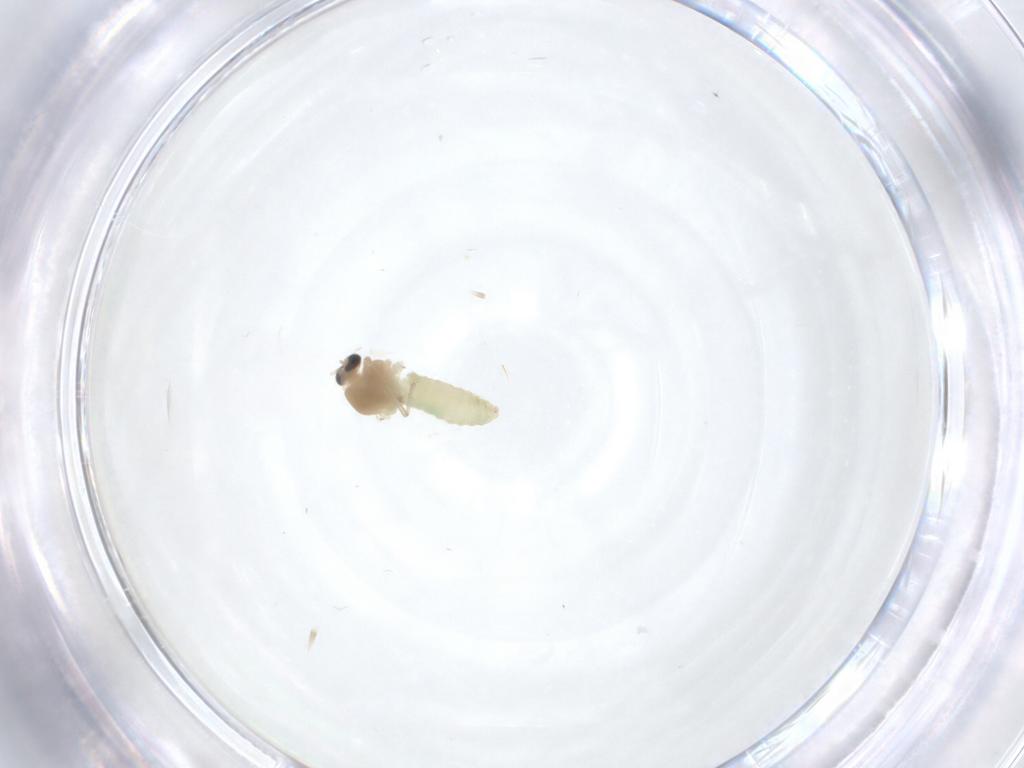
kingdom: Animalia
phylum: Arthropoda
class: Insecta
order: Diptera
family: Chironomidae
